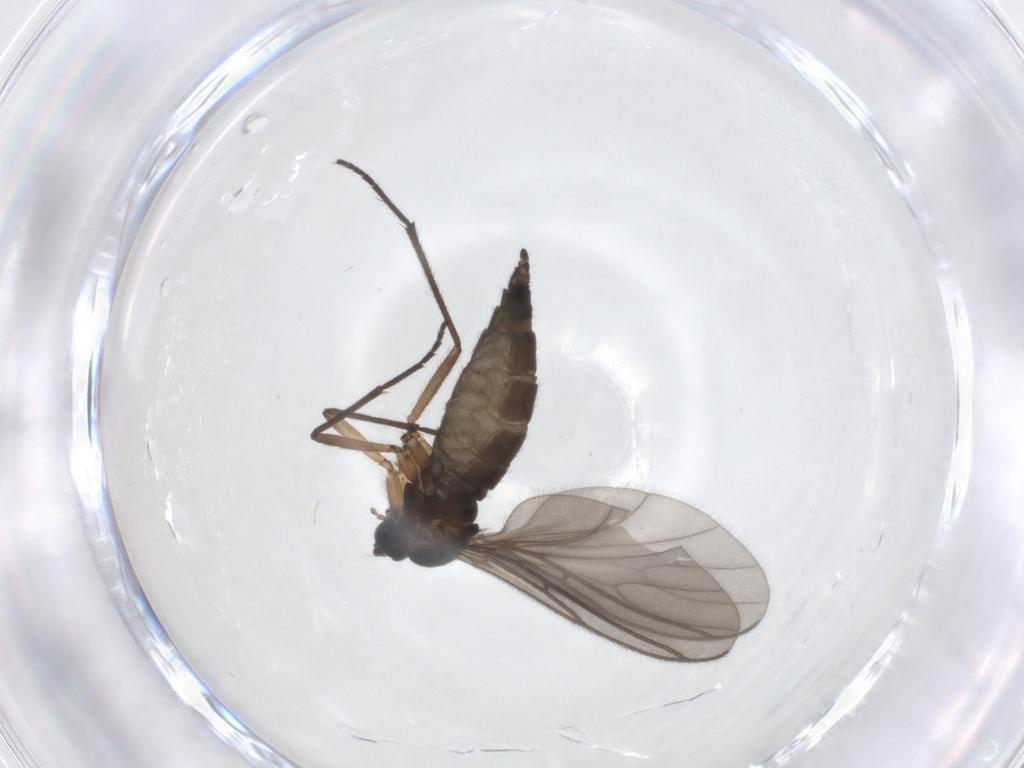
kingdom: Animalia
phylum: Arthropoda
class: Insecta
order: Diptera
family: Sciaridae
